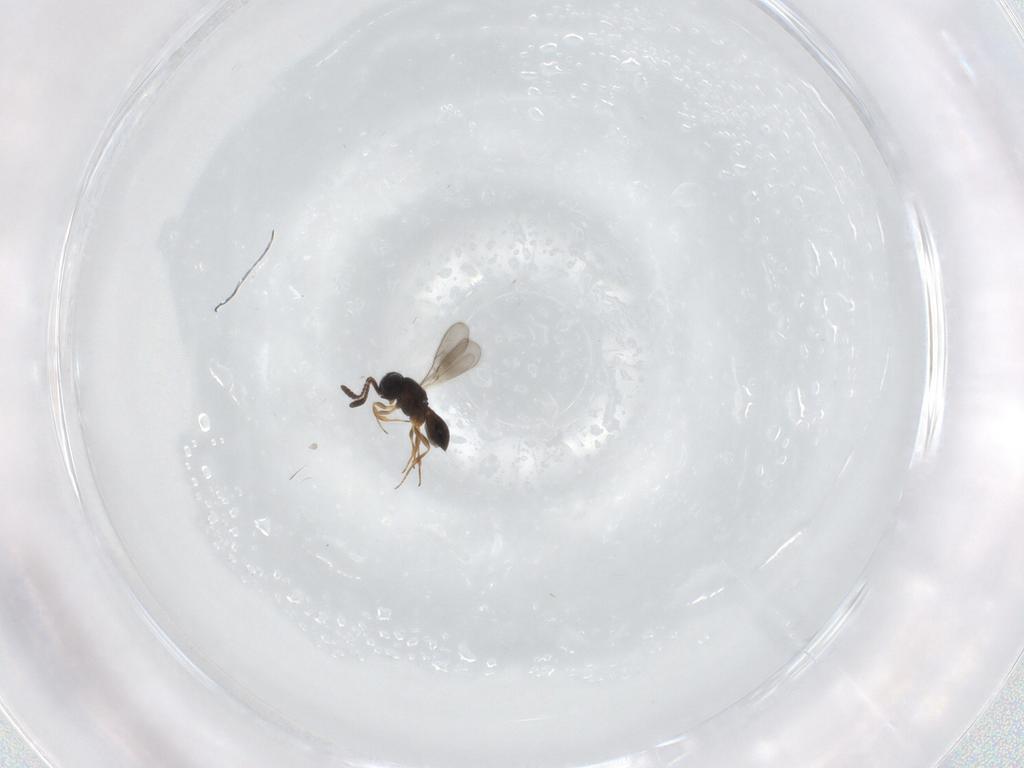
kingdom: Animalia
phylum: Arthropoda
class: Insecta
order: Hymenoptera
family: Scelionidae
